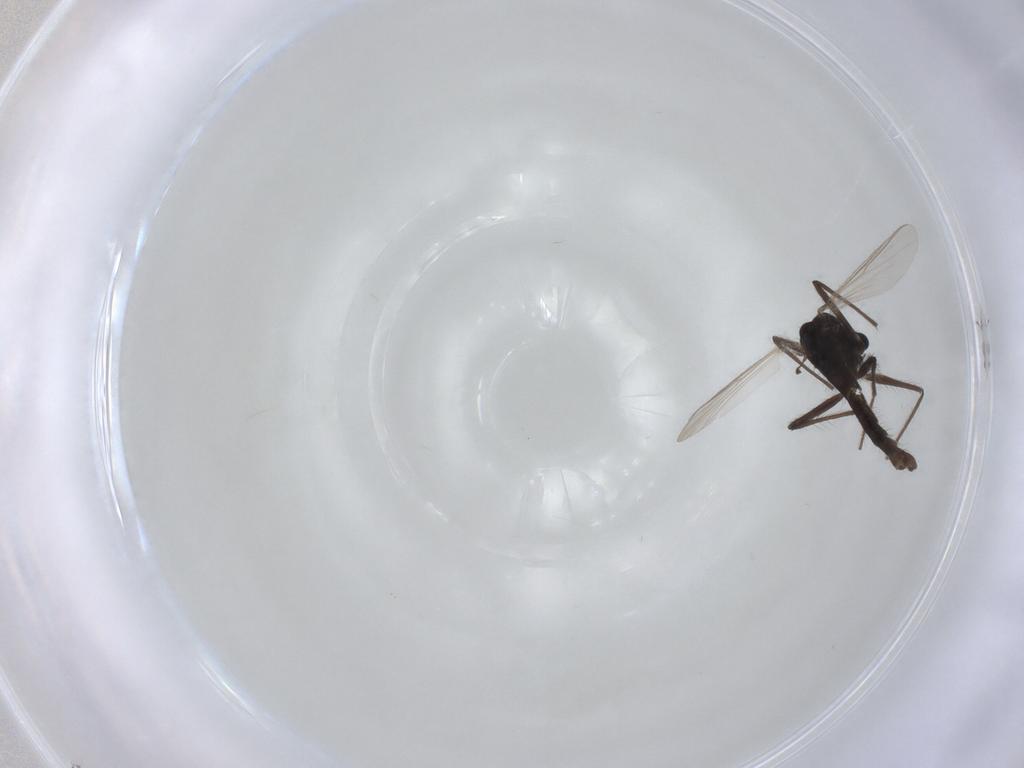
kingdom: Animalia
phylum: Arthropoda
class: Insecta
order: Diptera
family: Chironomidae
